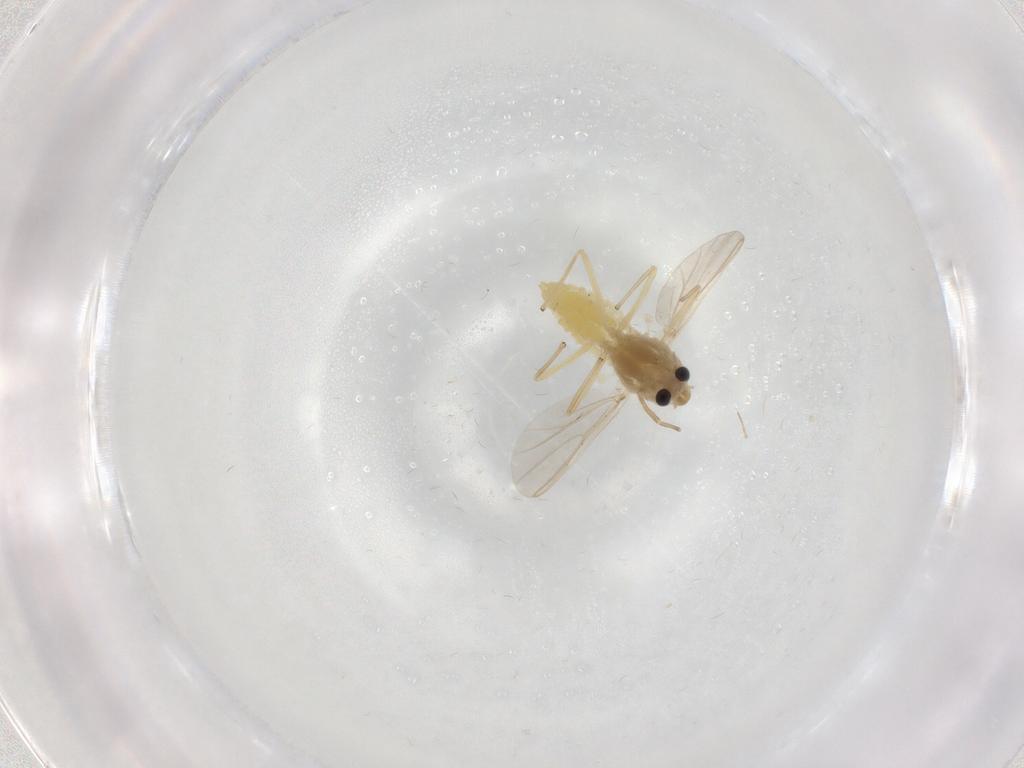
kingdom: Animalia
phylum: Arthropoda
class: Insecta
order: Diptera
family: Chironomidae
